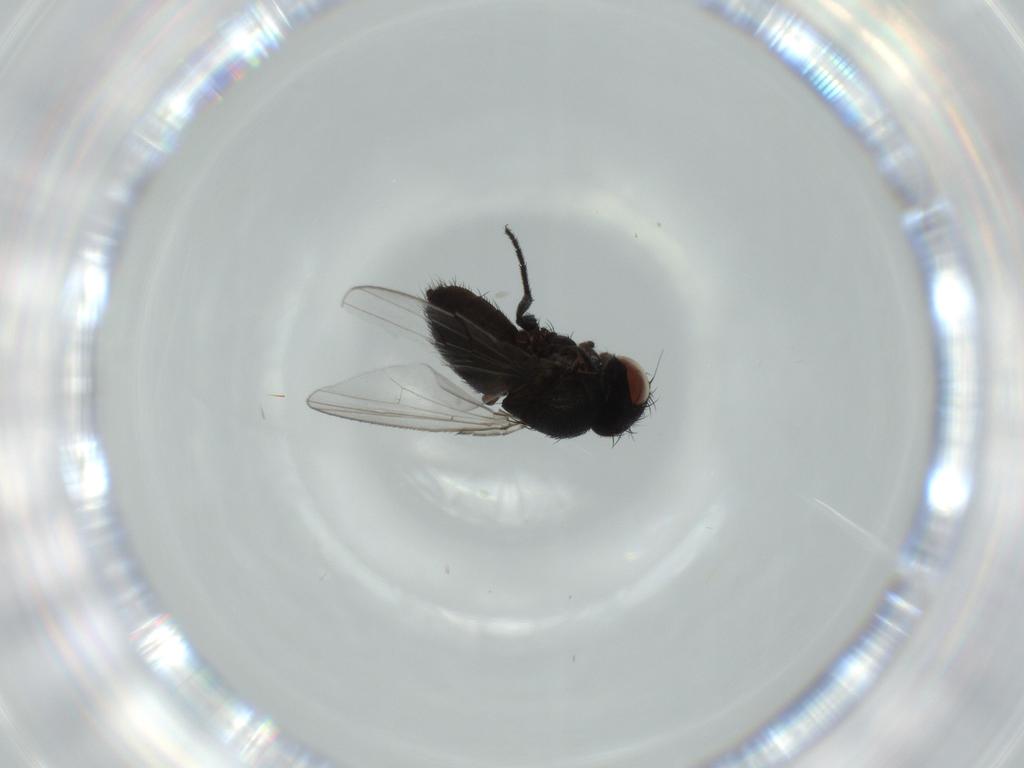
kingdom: Animalia
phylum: Arthropoda
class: Insecta
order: Diptera
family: Milichiidae
